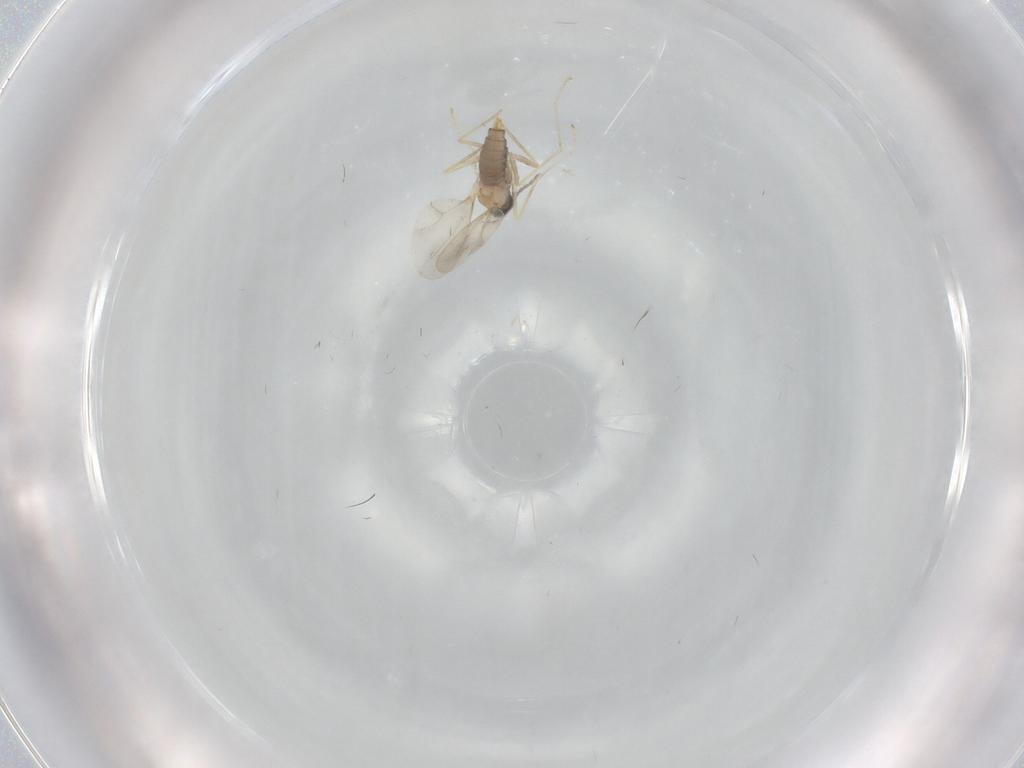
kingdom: Animalia
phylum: Arthropoda
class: Insecta
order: Diptera
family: Cecidomyiidae
